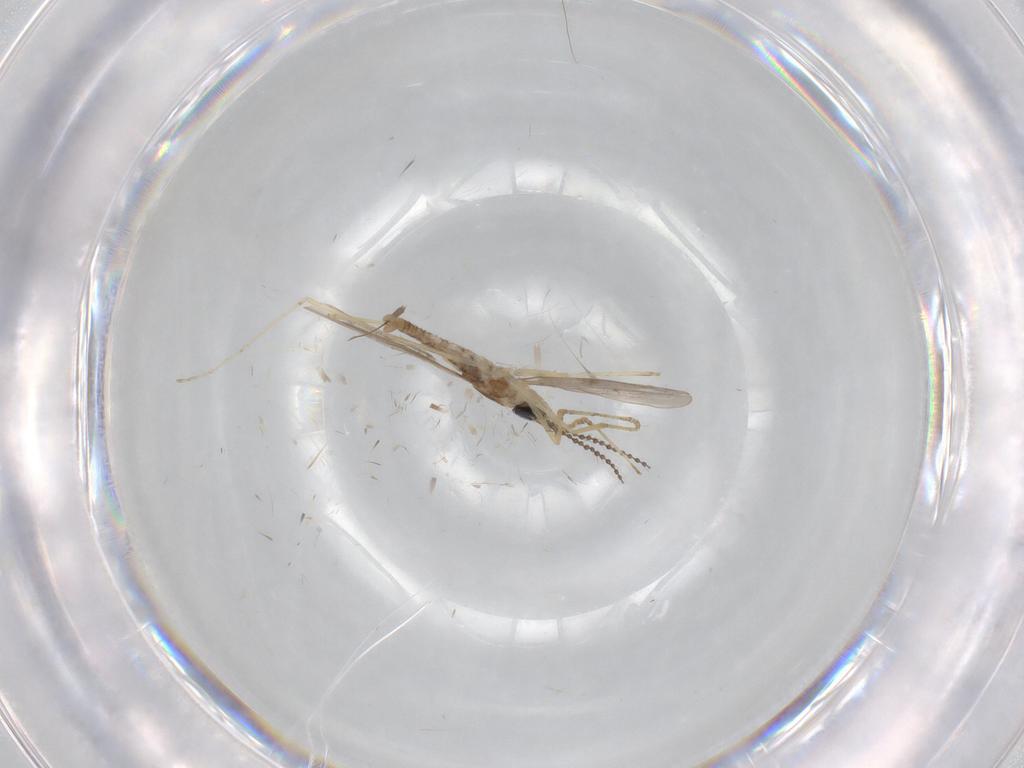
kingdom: Animalia
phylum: Arthropoda
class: Insecta
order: Diptera
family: Cecidomyiidae
